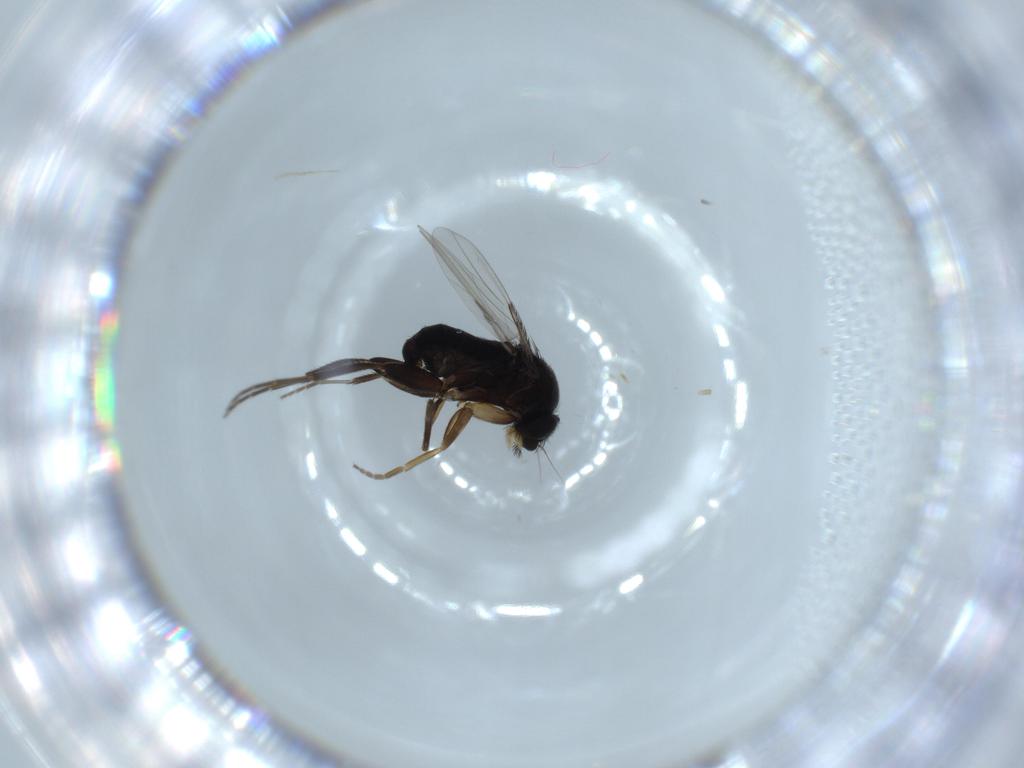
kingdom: Animalia
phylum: Arthropoda
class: Insecta
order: Diptera
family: Phoridae
